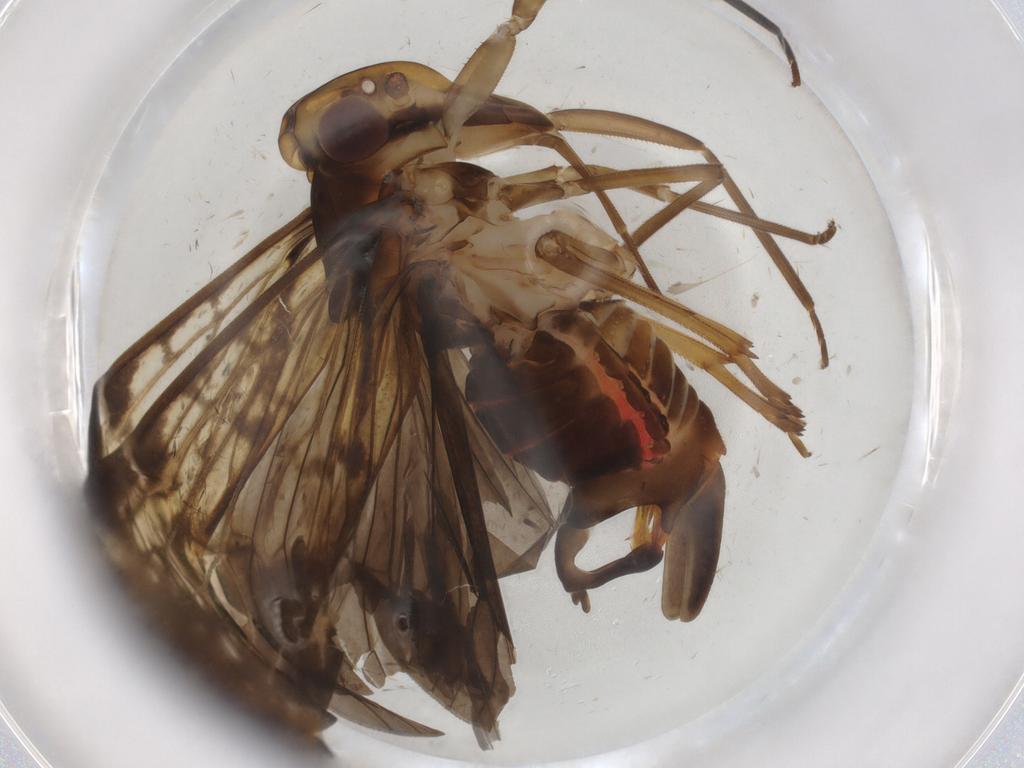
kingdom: Animalia
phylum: Arthropoda
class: Insecta
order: Hemiptera
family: Cixiidae
